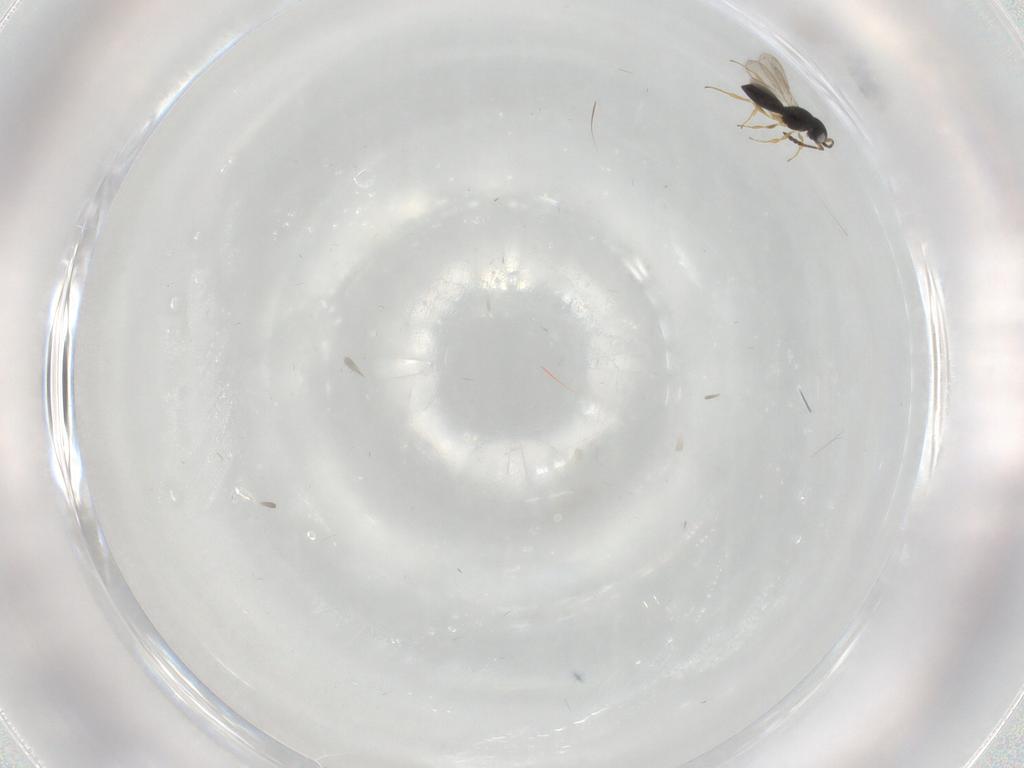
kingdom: Animalia
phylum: Arthropoda
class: Insecta
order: Hymenoptera
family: Scelionidae
